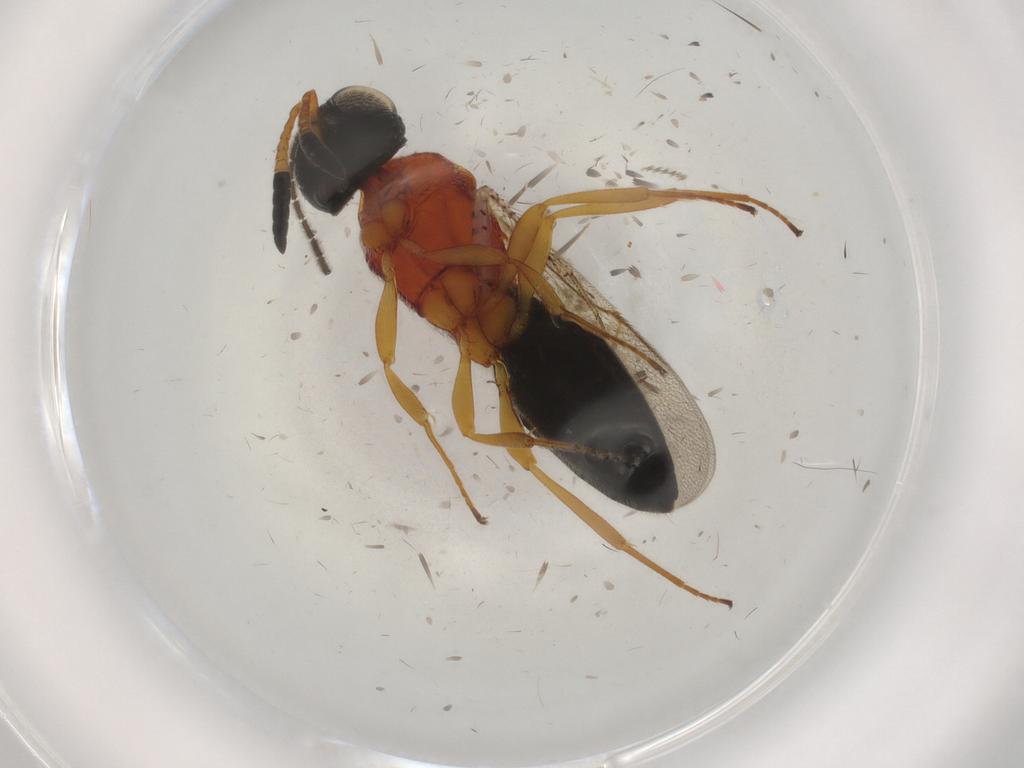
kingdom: Animalia
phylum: Arthropoda
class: Insecta
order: Hymenoptera
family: Scelionidae
